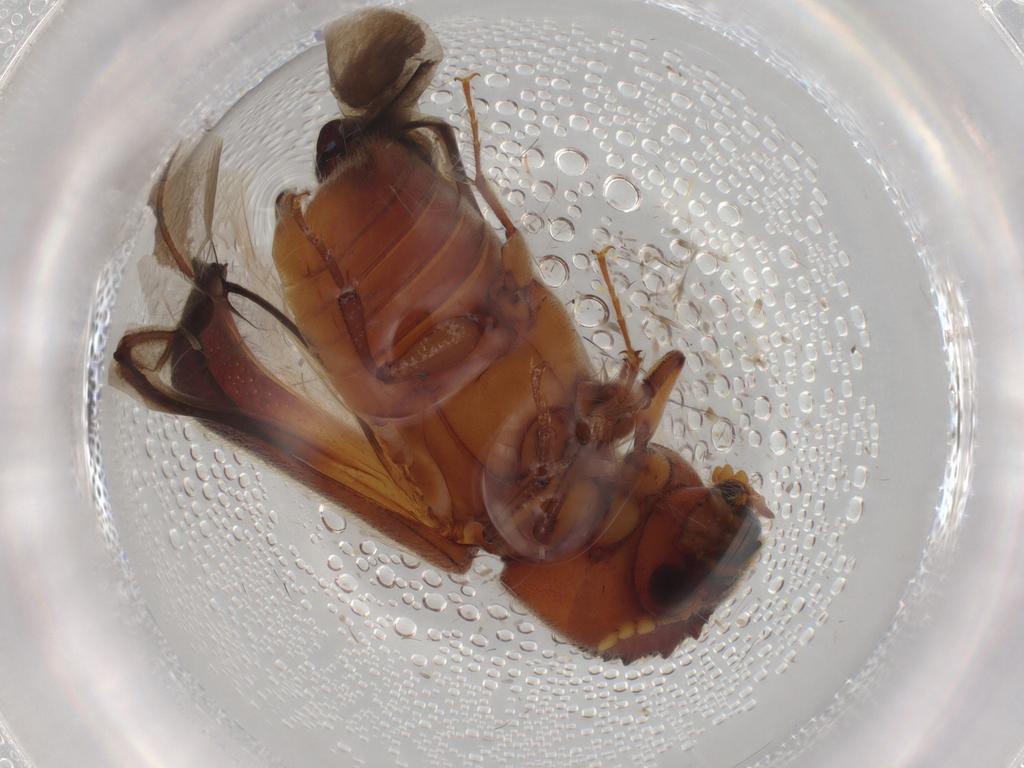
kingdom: Animalia
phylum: Arthropoda
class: Insecta
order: Coleoptera
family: Bostrichidae
